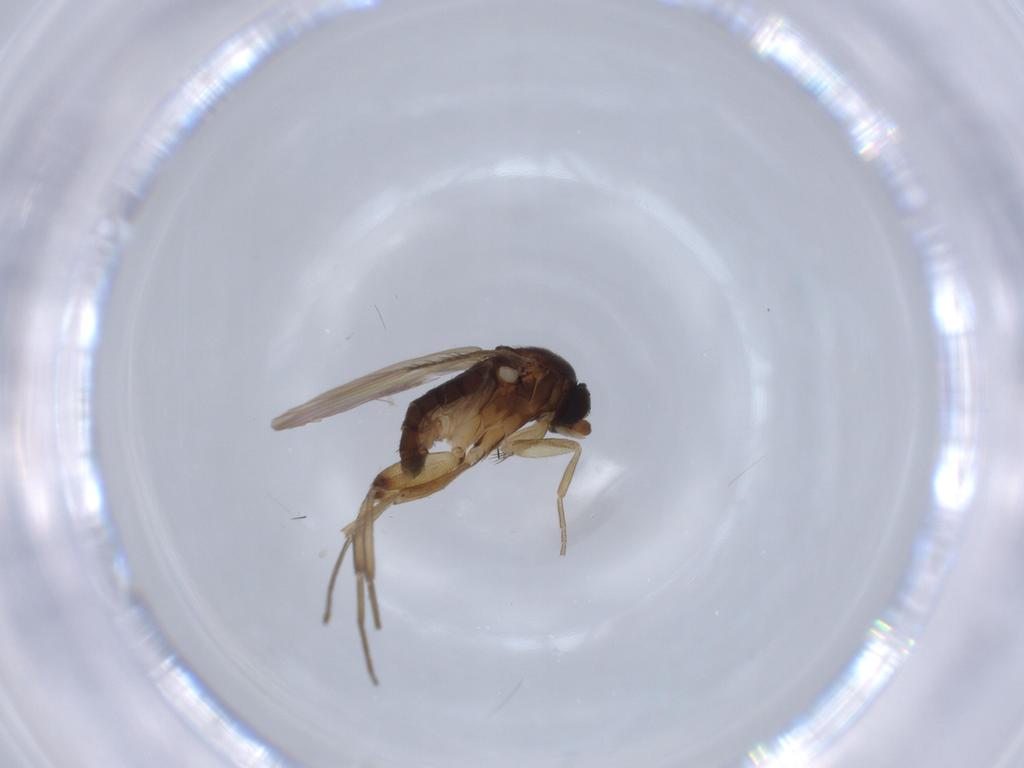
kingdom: Animalia
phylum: Arthropoda
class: Insecta
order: Diptera
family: Phoridae
